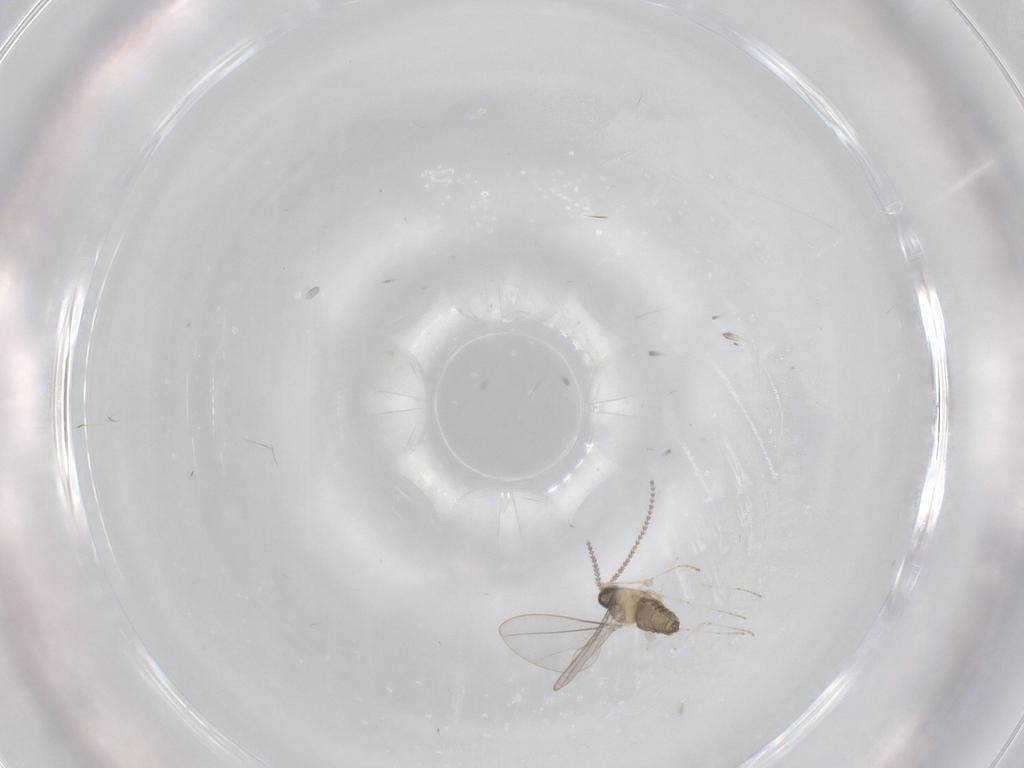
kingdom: Animalia
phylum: Arthropoda
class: Insecta
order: Diptera
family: Cecidomyiidae
